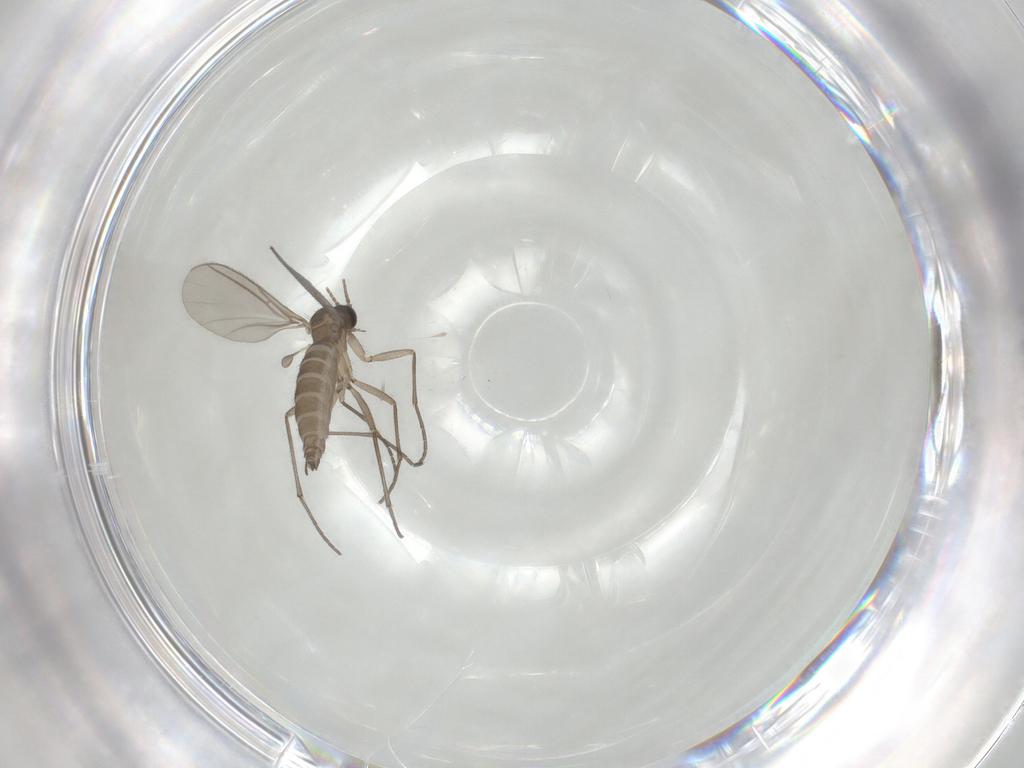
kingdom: Animalia
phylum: Arthropoda
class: Insecta
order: Diptera
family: Sciaridae
